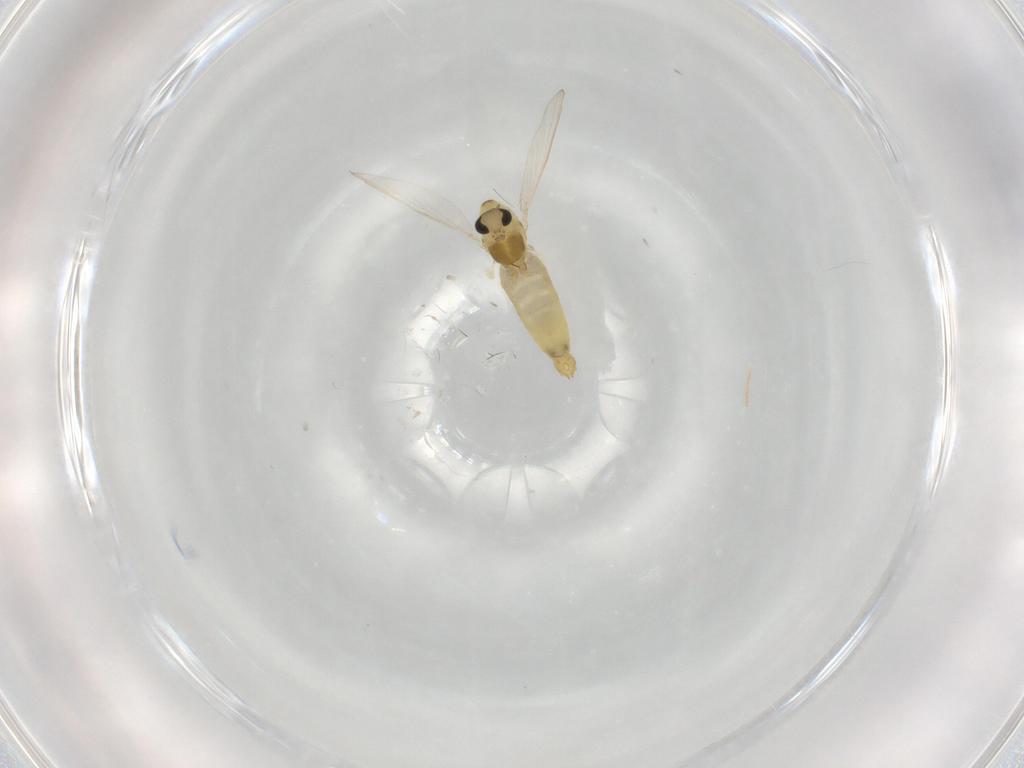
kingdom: Animalia
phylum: Arthropoda
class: Insecta
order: Diptera
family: Chironomidae
